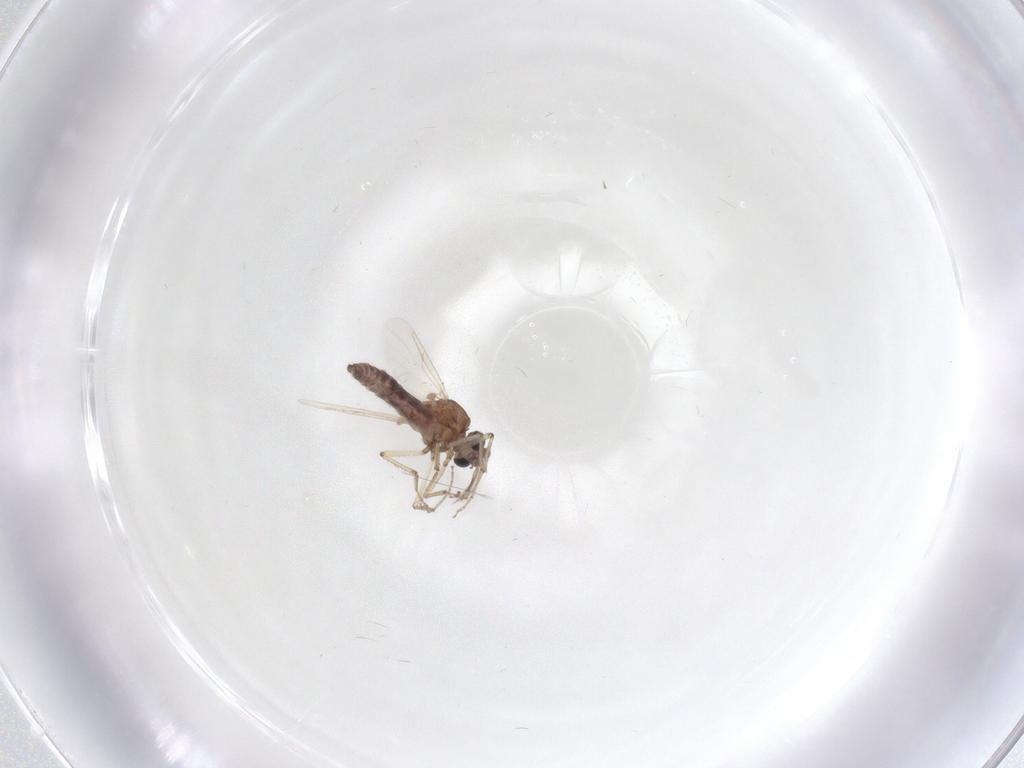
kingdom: Animalia
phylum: Arthropoda
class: Insecta
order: Diptera
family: Ceratopogonidae
